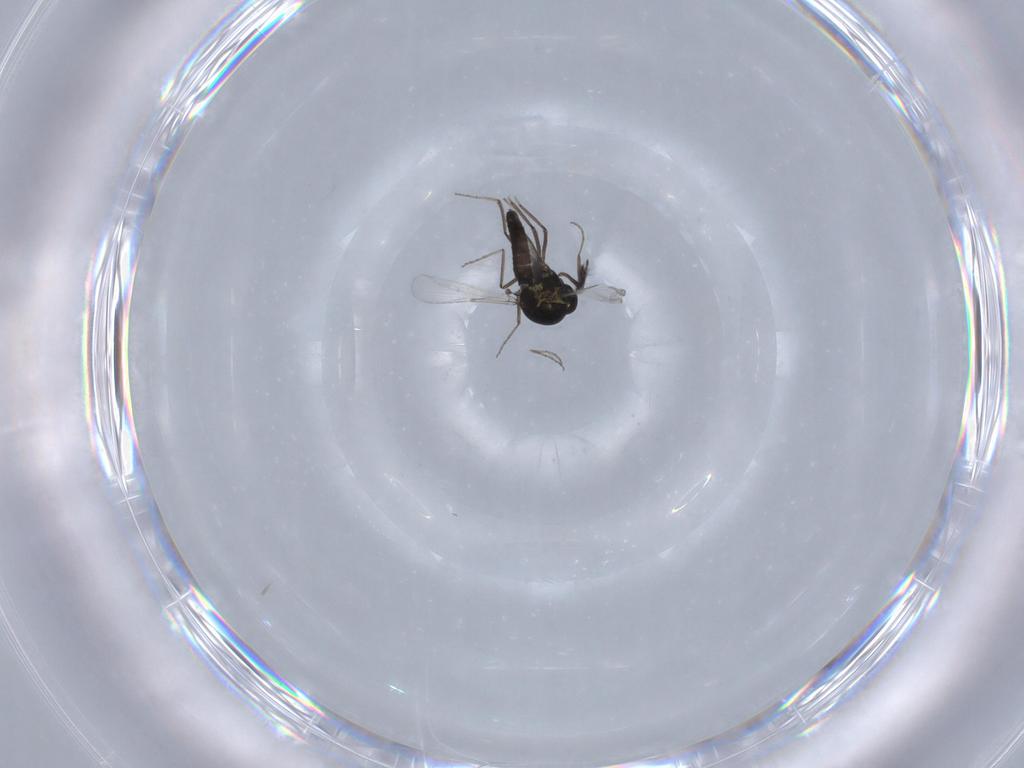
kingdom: Animalia
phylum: Arthropoda
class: Insecta
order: Diptera
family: Ceratopogonidae
